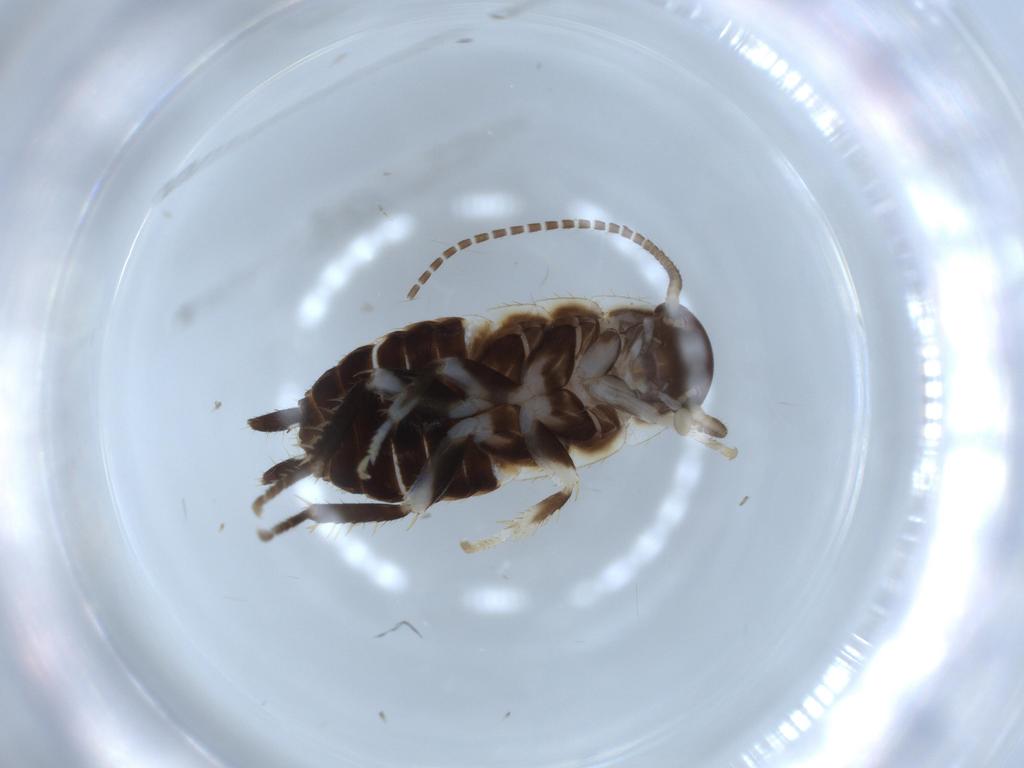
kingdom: Animalia
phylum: Arthropoda
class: Insecta
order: Blattodea
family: Ectobiidae
